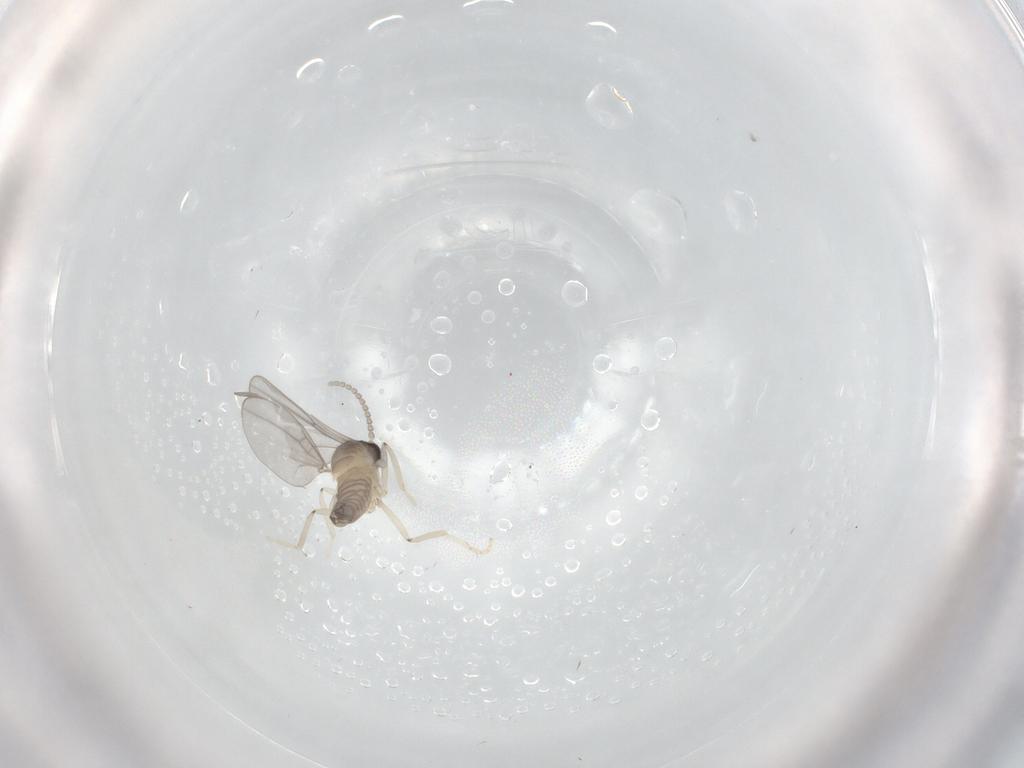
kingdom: Animalia
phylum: Arthropoda
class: Insecta
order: Diptera
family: Cecidomyiidae
